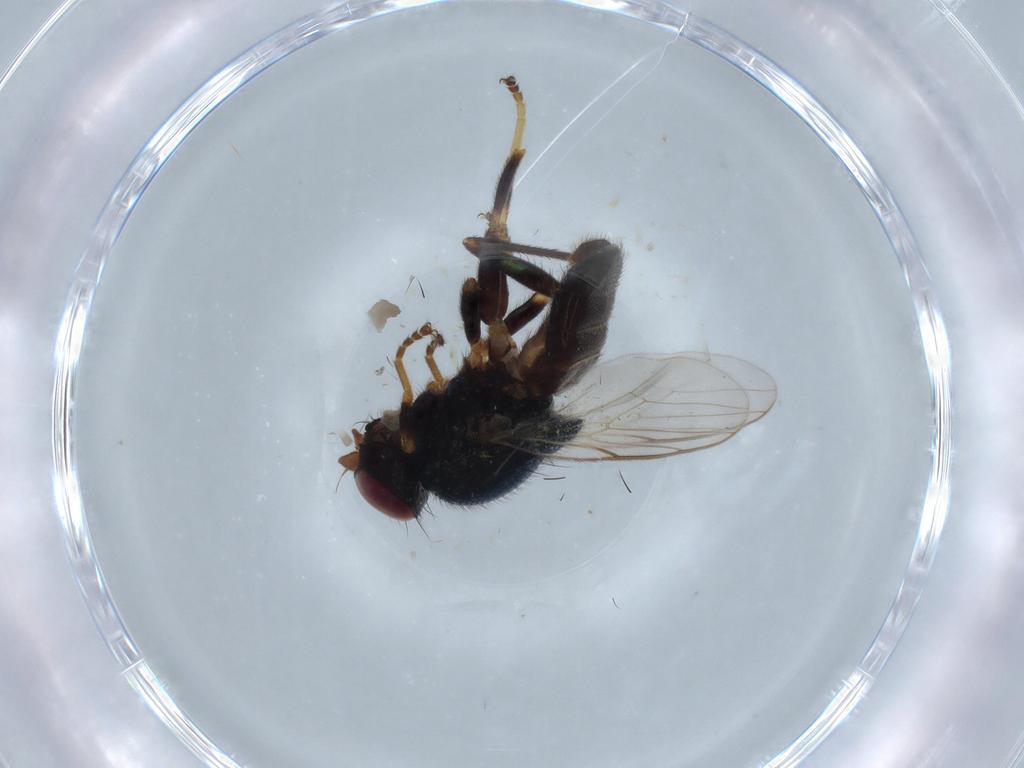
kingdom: Animalia
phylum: Arthropoda
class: Insecta
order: Diptera
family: Chloropidae
